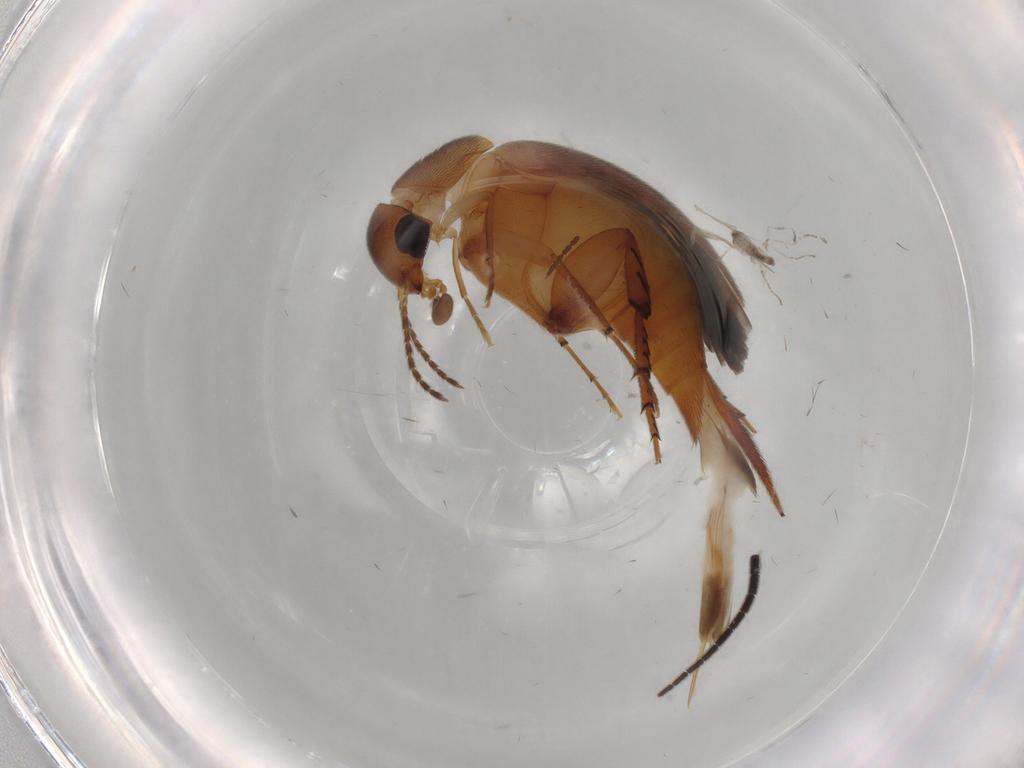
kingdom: Animalia
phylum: Arthropoda
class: Insecta
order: Coleoptera
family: Mordellidae
